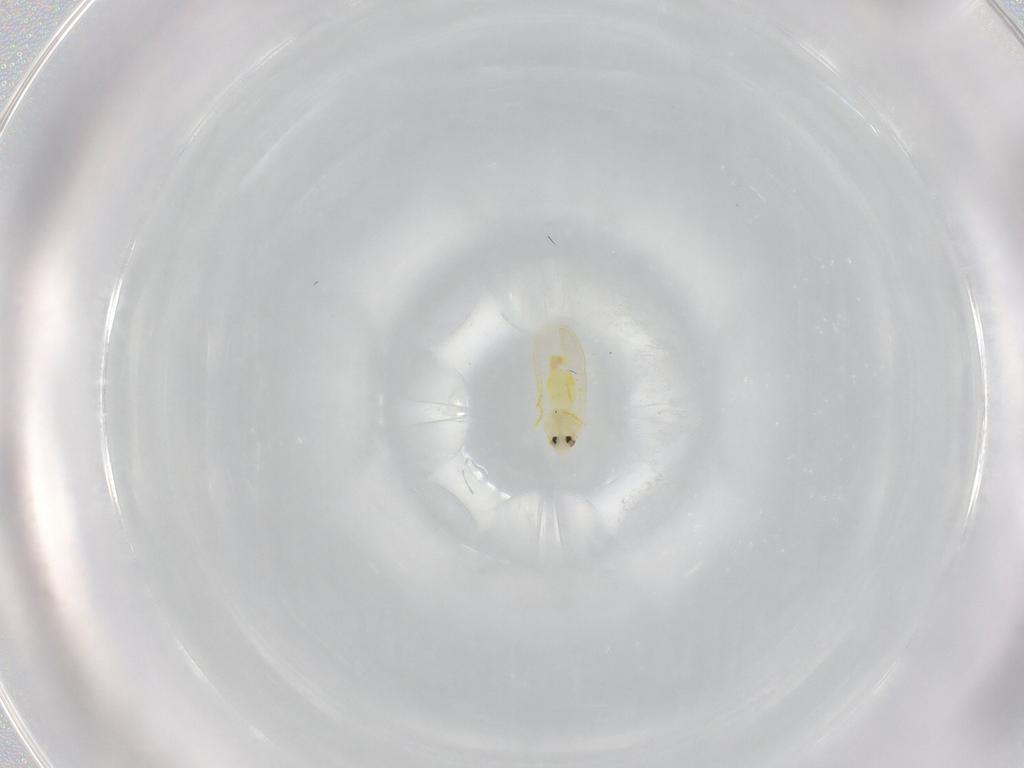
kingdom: Animalia
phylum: Arthropoda
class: Insecta
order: Hemiptera
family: Aleyrodidae
